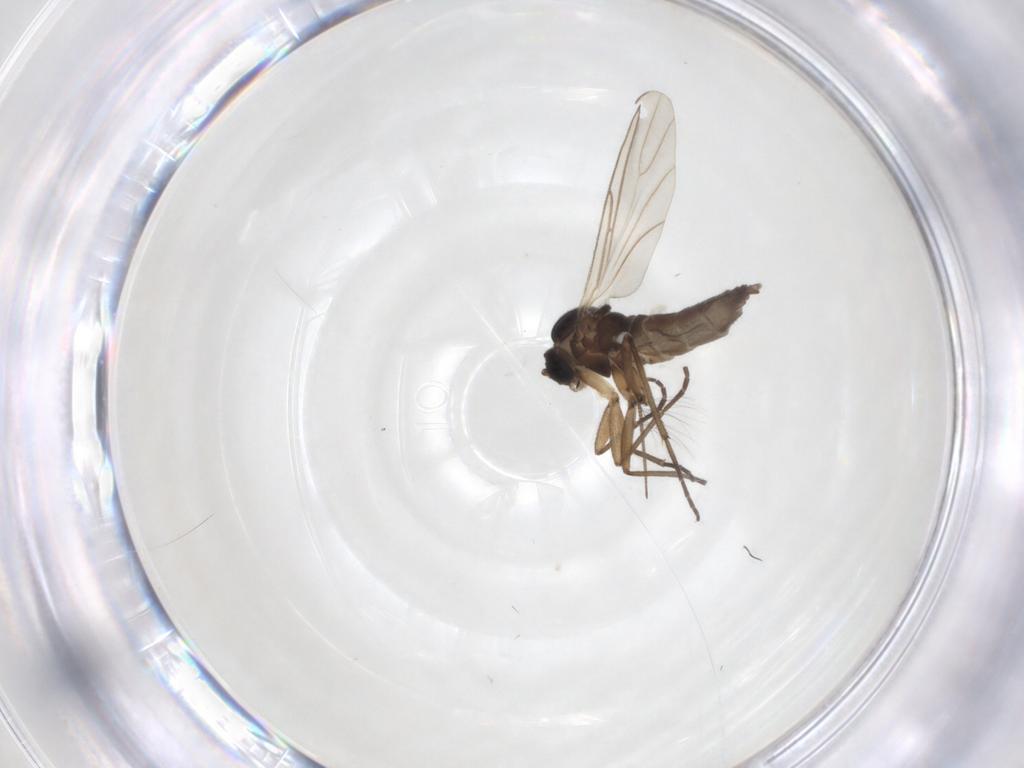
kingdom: Animalia
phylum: Arthropoda
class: Insecta
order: Diptera
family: Chironomidae
